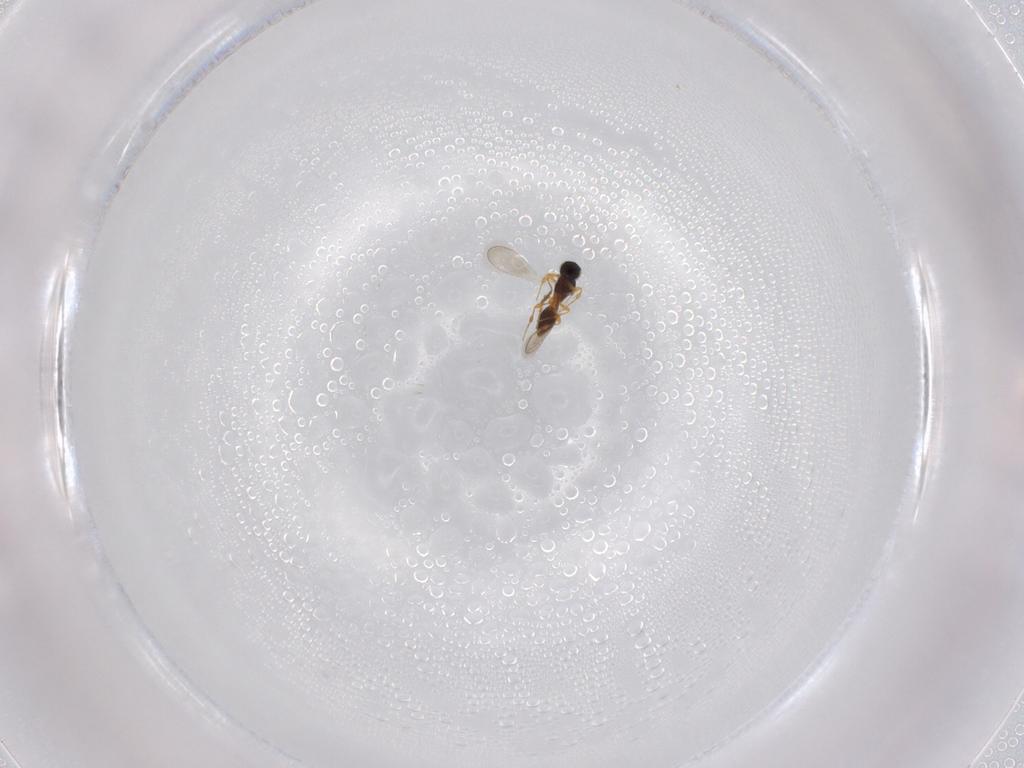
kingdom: Animalia
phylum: Arthropoda
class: Insecta
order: Hymenoptera
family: Platygastridae
